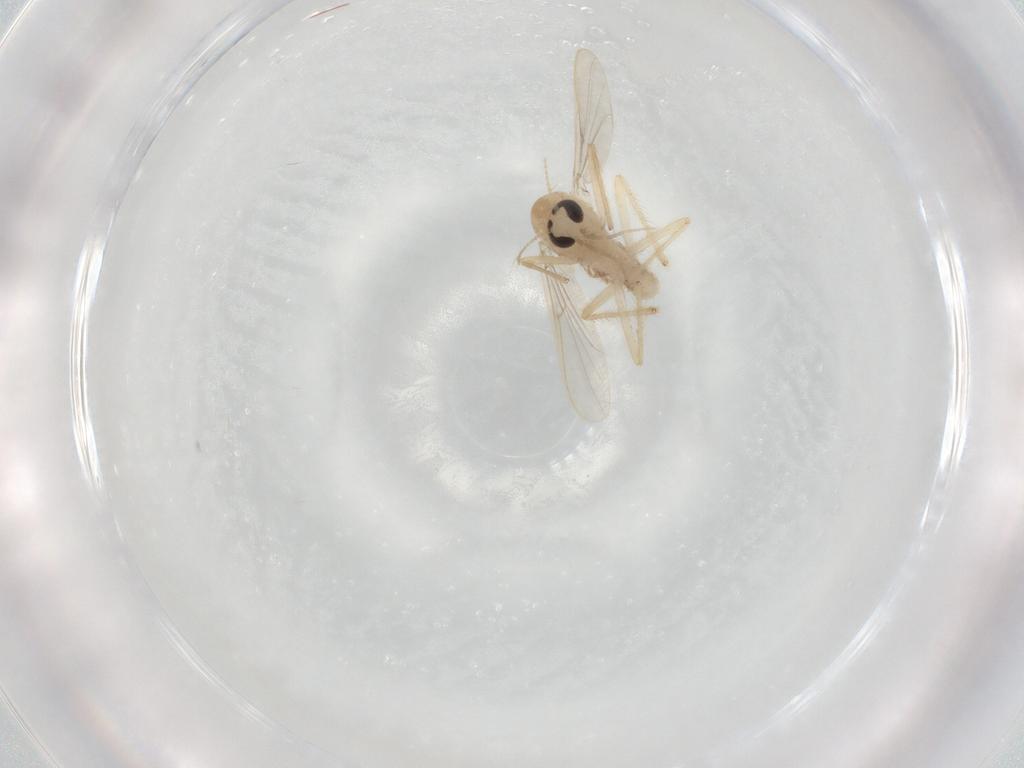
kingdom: Animalia
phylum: Arthropoda
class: Insecta
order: Diptera
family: Chironomidae
